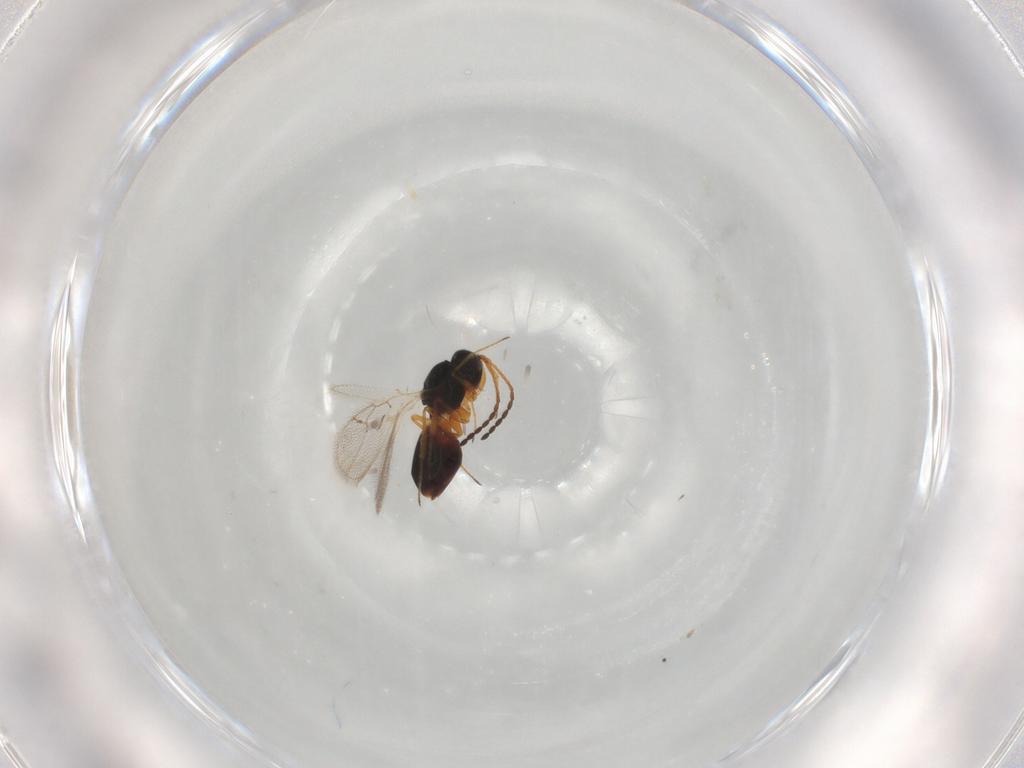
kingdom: Animalia
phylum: Arthropoda
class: Insecta
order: Hymenoptera
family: Figitidae
